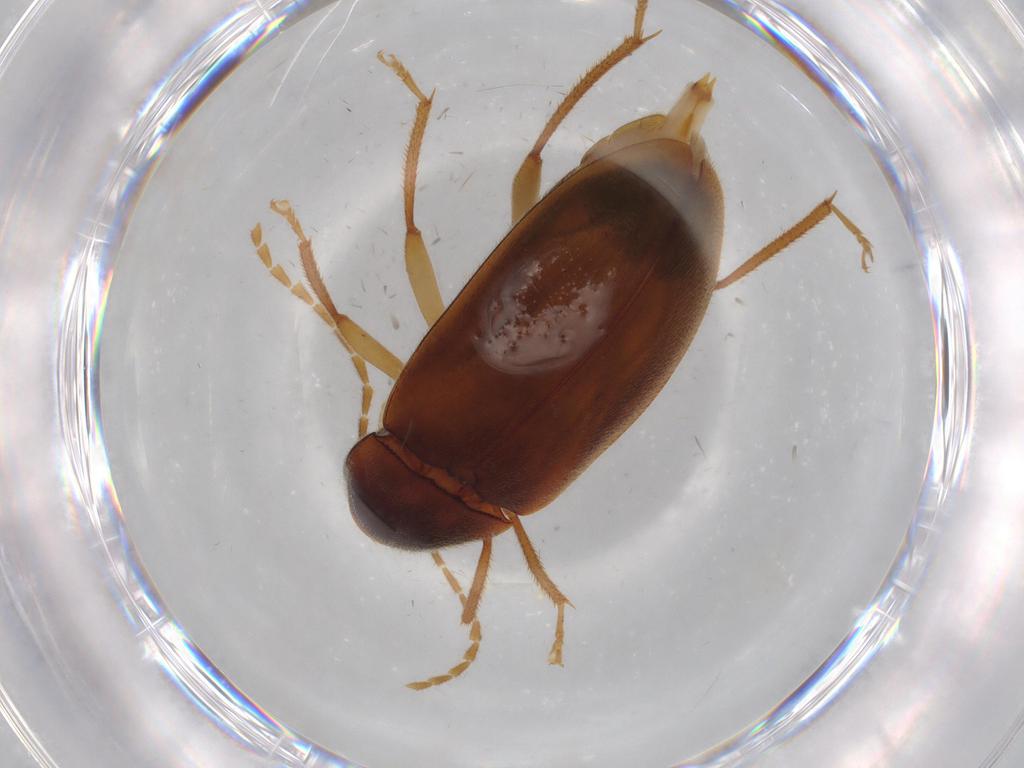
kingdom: Animalia
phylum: Arthropoda
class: Insecta
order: Coleoptera
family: Ptilodactylidae
